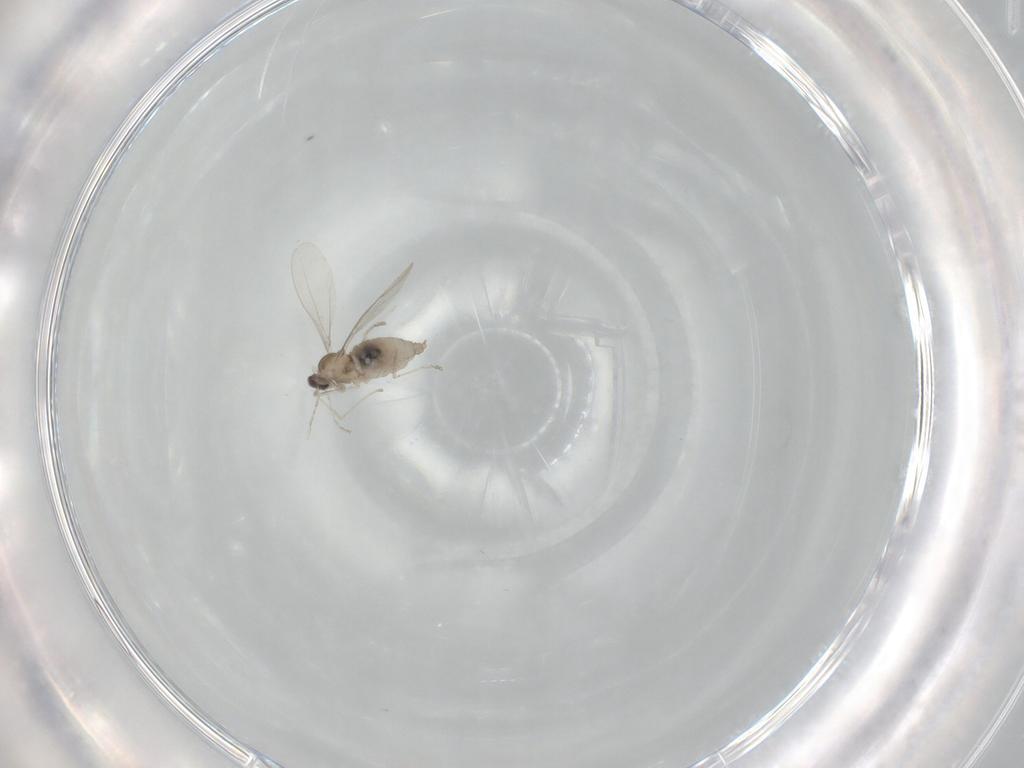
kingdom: Animalia
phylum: Arthropoda
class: Insecta
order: Diptera
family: Cecidomyiidae
